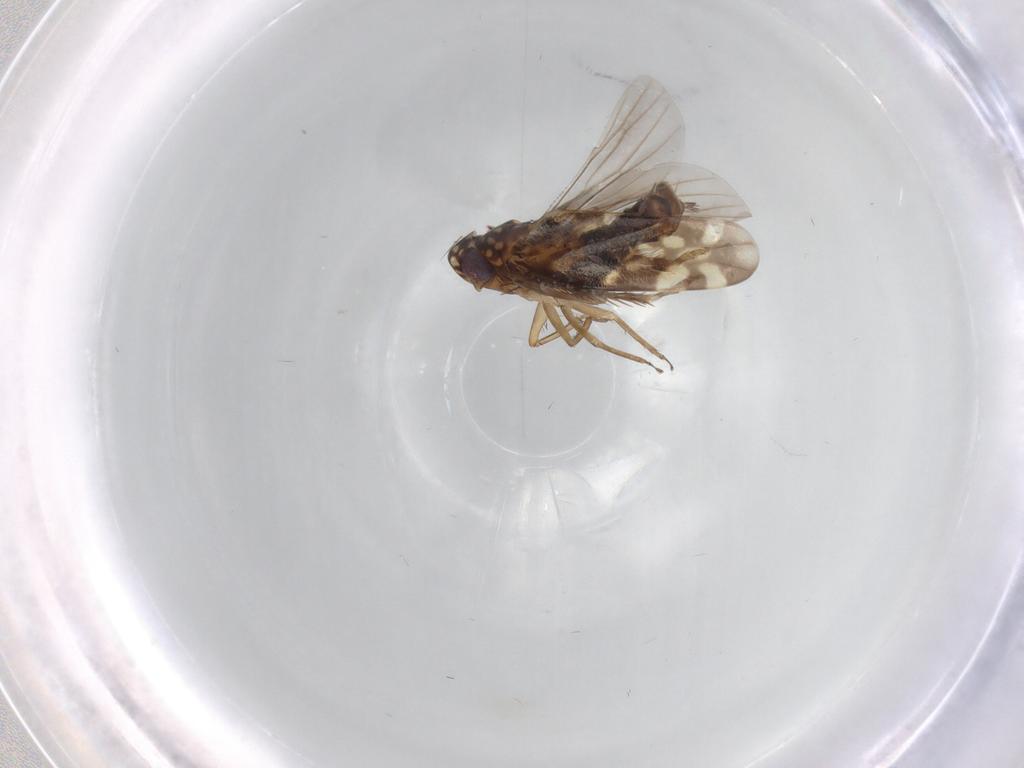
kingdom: Animalia
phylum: Arthropoda
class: Insecta
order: Hemiptera
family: Cicadellidae
